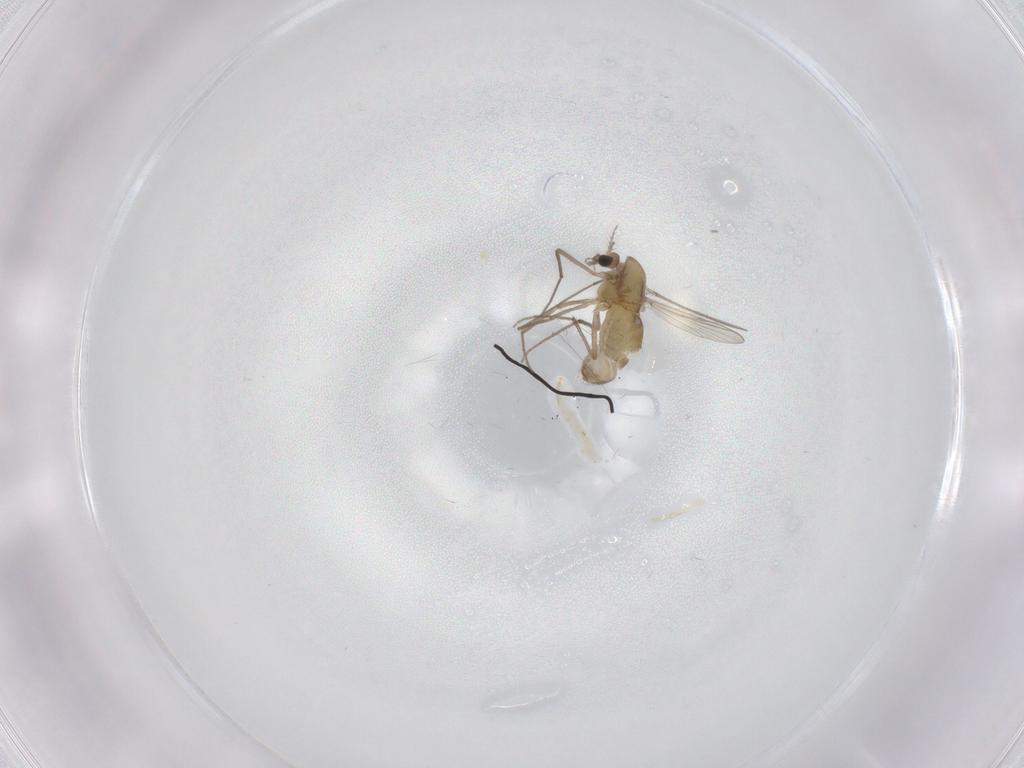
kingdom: Animalia
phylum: Arthropoda
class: Insecta
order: Diptera
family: Chironomidae
